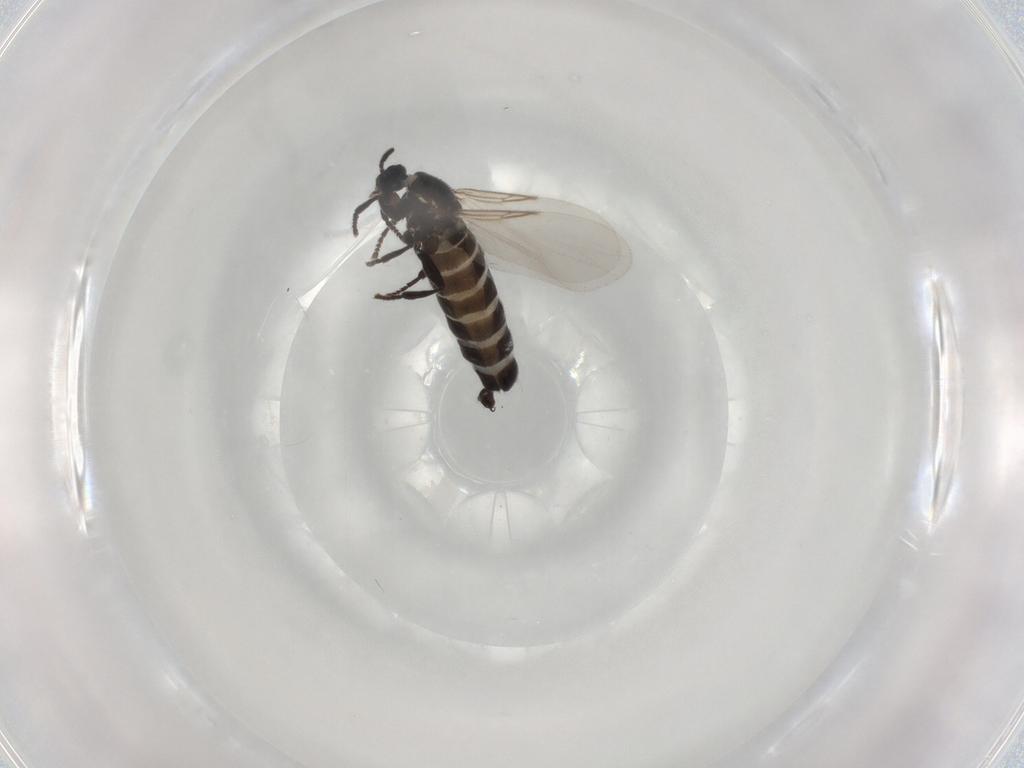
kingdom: Animalia
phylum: Arthropoda
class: Insecta
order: Diptera
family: Scatopsidae
